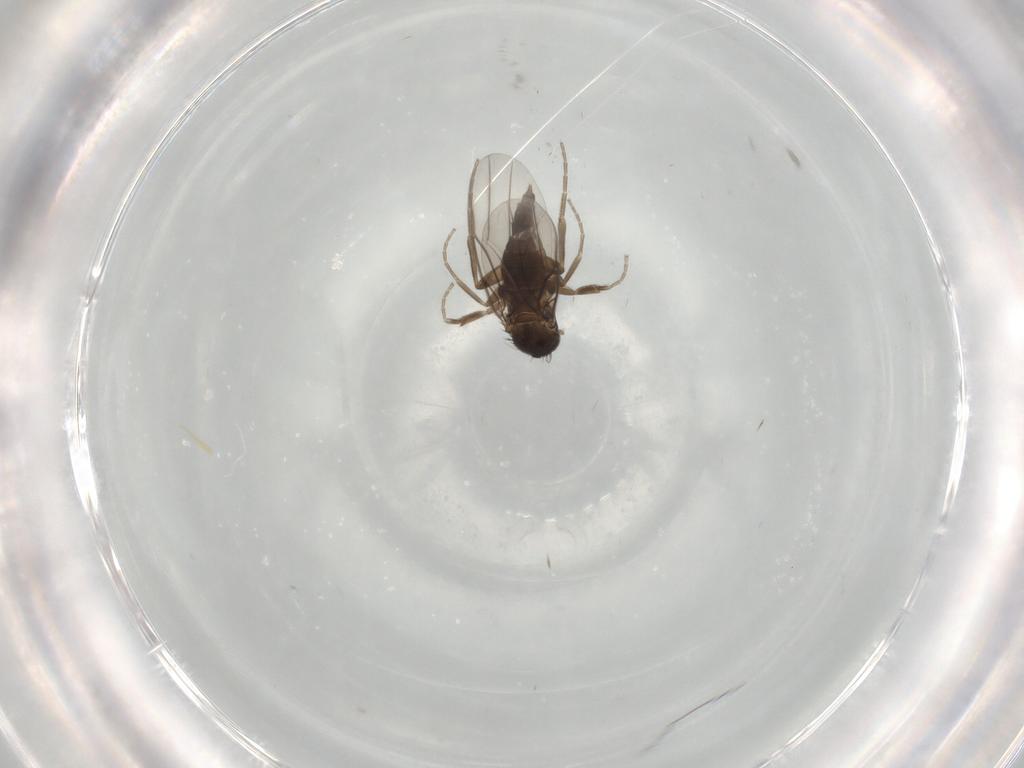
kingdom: Animalia
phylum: Arthropoda
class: Insecta
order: Diptera
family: Phoridae
